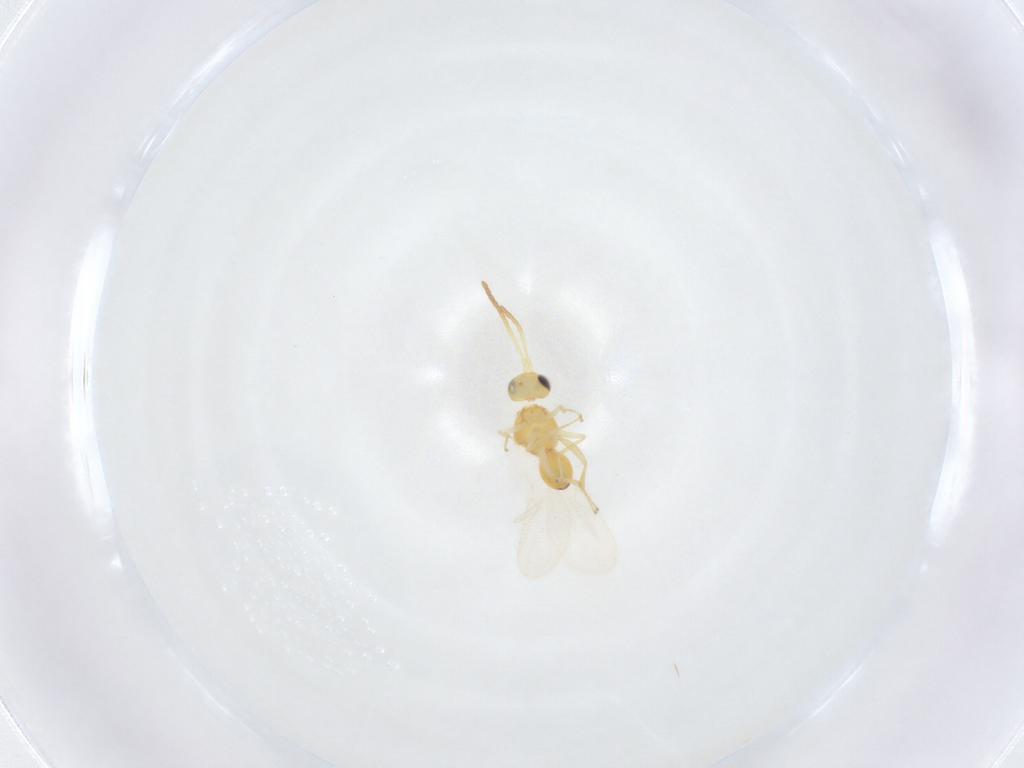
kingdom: Animalia
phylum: Arthropoda
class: Insecta
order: Hymenoptera
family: Figitidae
